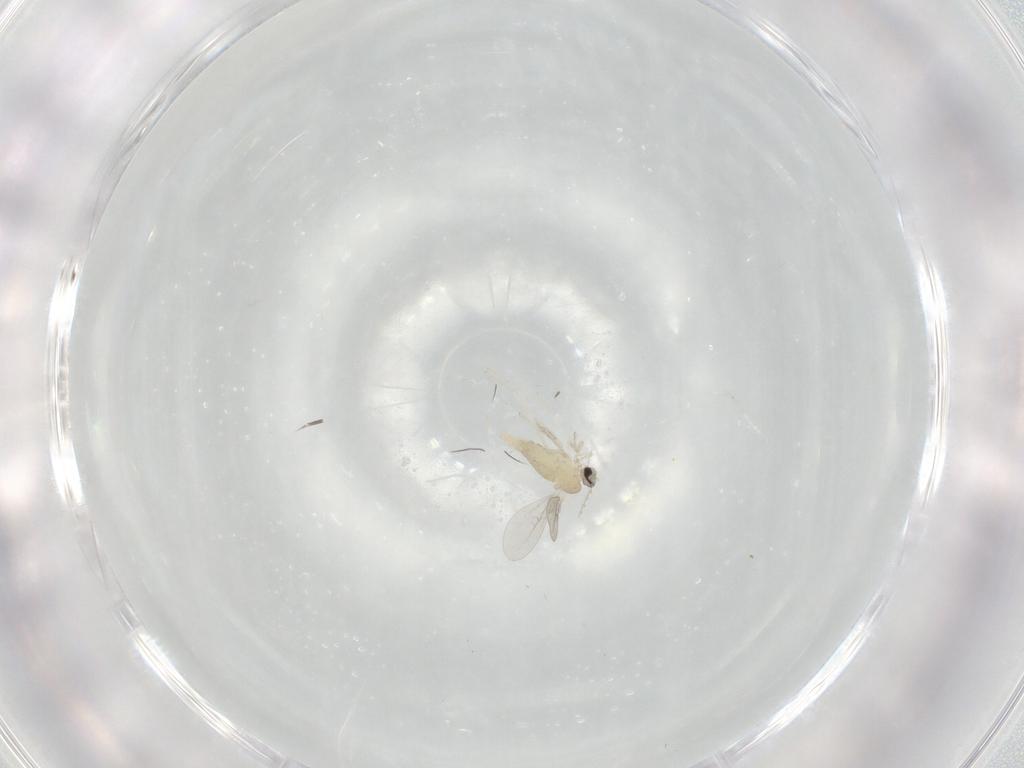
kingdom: Animalia
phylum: Arthropoda
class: Insecta
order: Diptera
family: Cecidomyiidae
